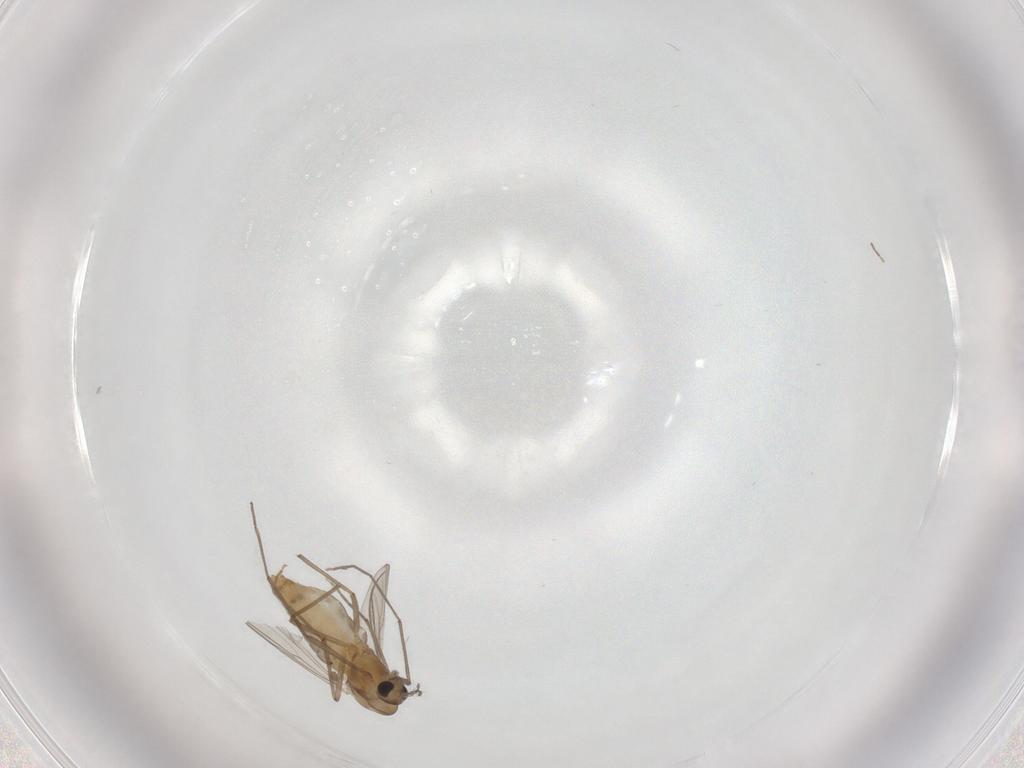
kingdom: Animalia
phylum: Arthropoda
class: Insecta
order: Diptera
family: Chironomidae
